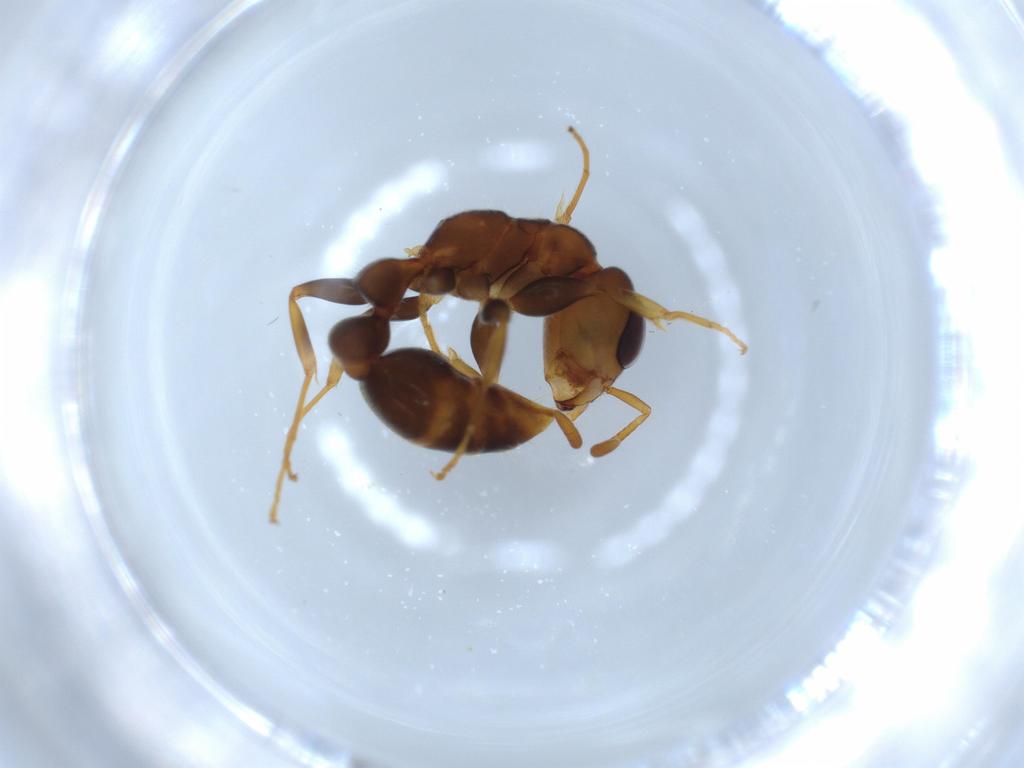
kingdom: Animalia
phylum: Arthropoda
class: Insecta
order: Hymenoptera
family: Formicidae
